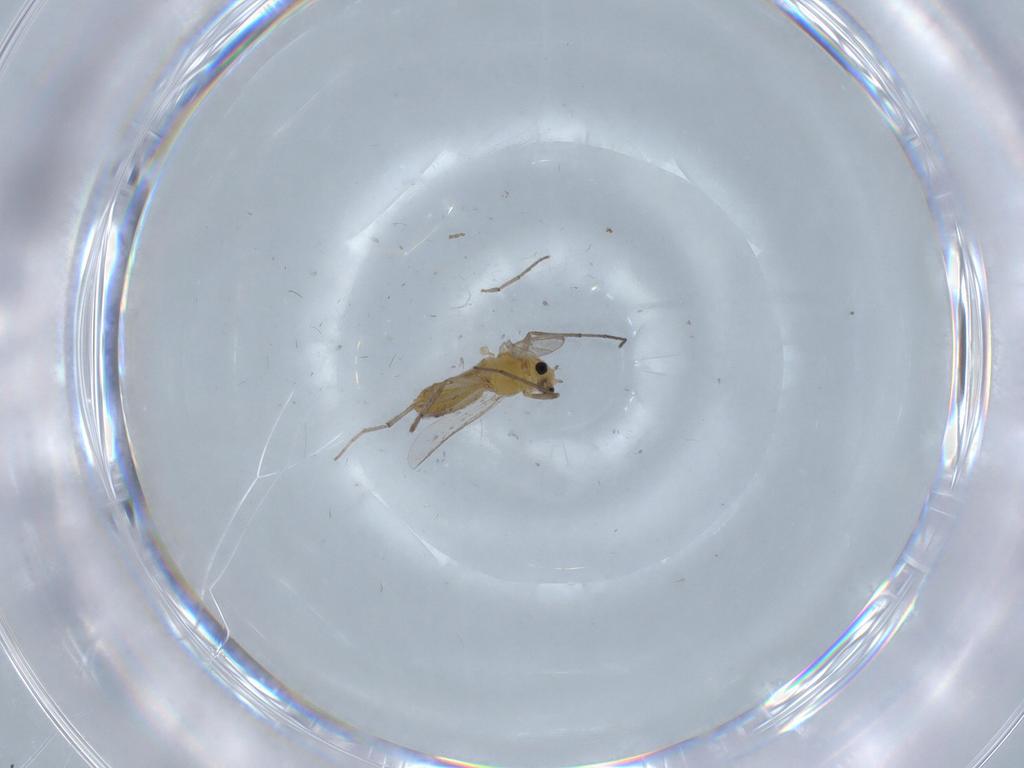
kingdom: Animalia
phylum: Arthropoda
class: Insecta
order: Diptera
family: Chironomidae
